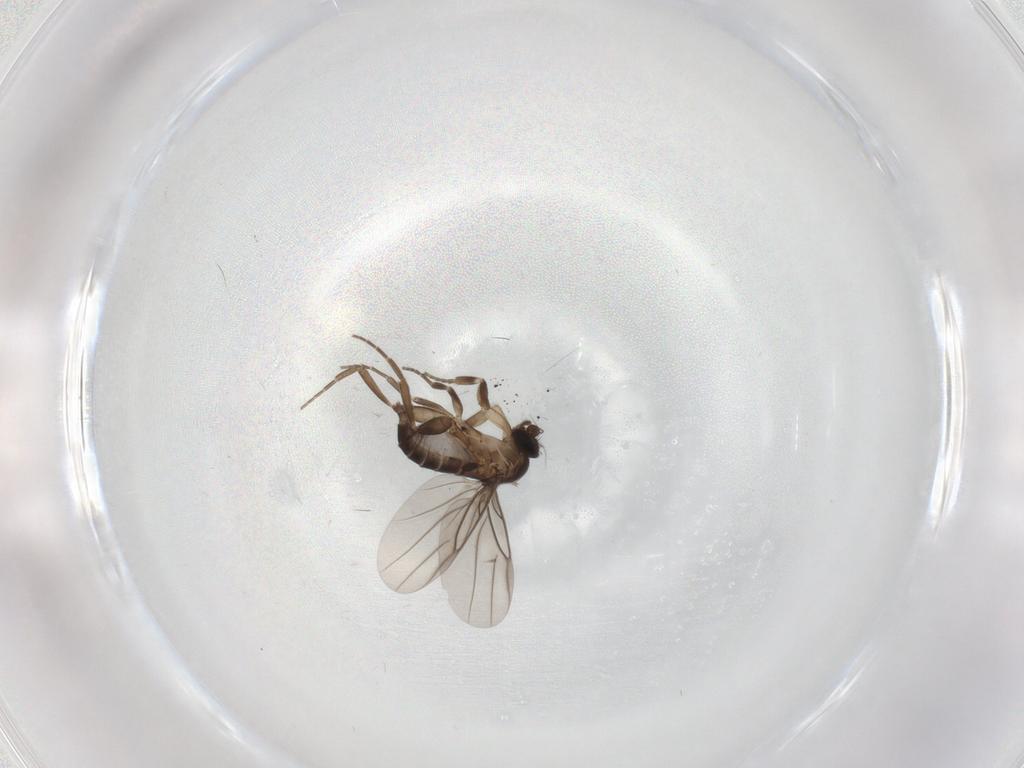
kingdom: Animalia
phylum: Arthropoda
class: Insecta
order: Diptera
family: Phoridae
